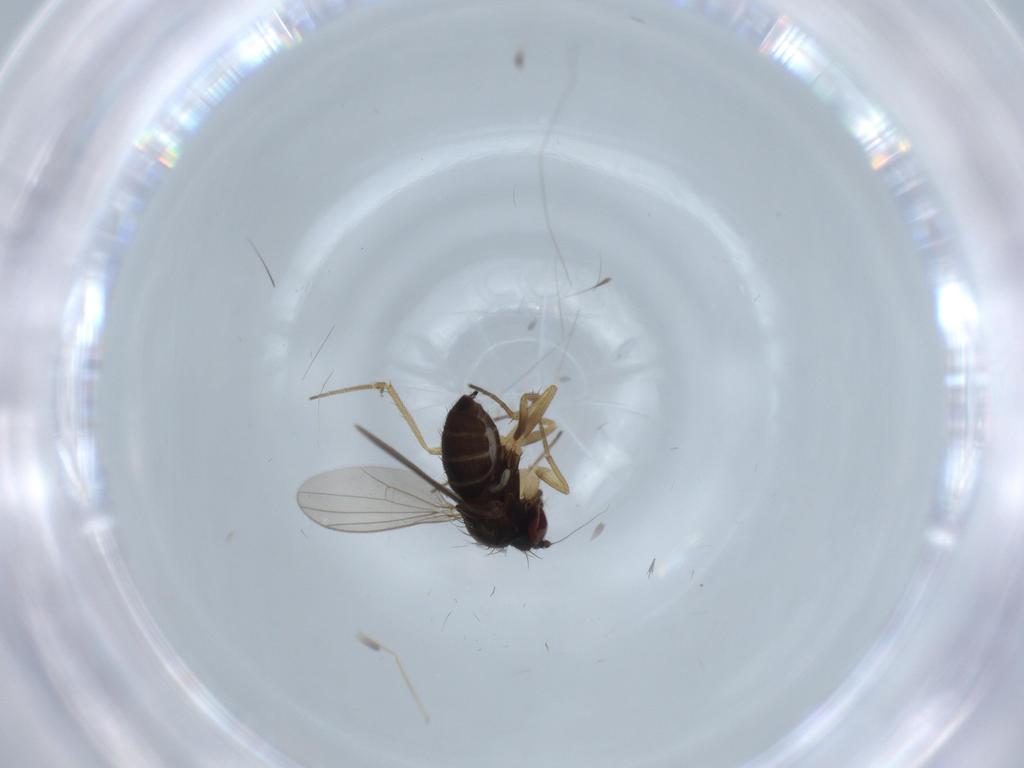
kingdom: Animalia
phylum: Arthropoda
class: Insecta
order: Diptera
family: Dolichopodidae
